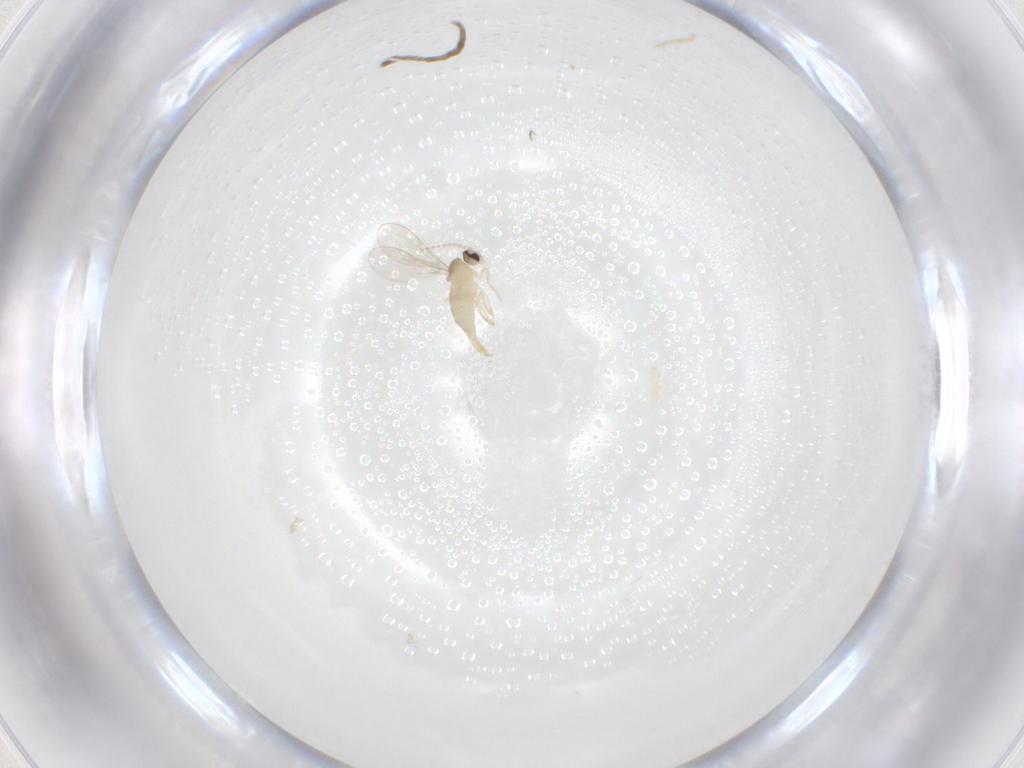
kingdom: Animalia
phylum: Arthropoda
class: Insecta
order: Diptera
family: Cecidomyiidae
